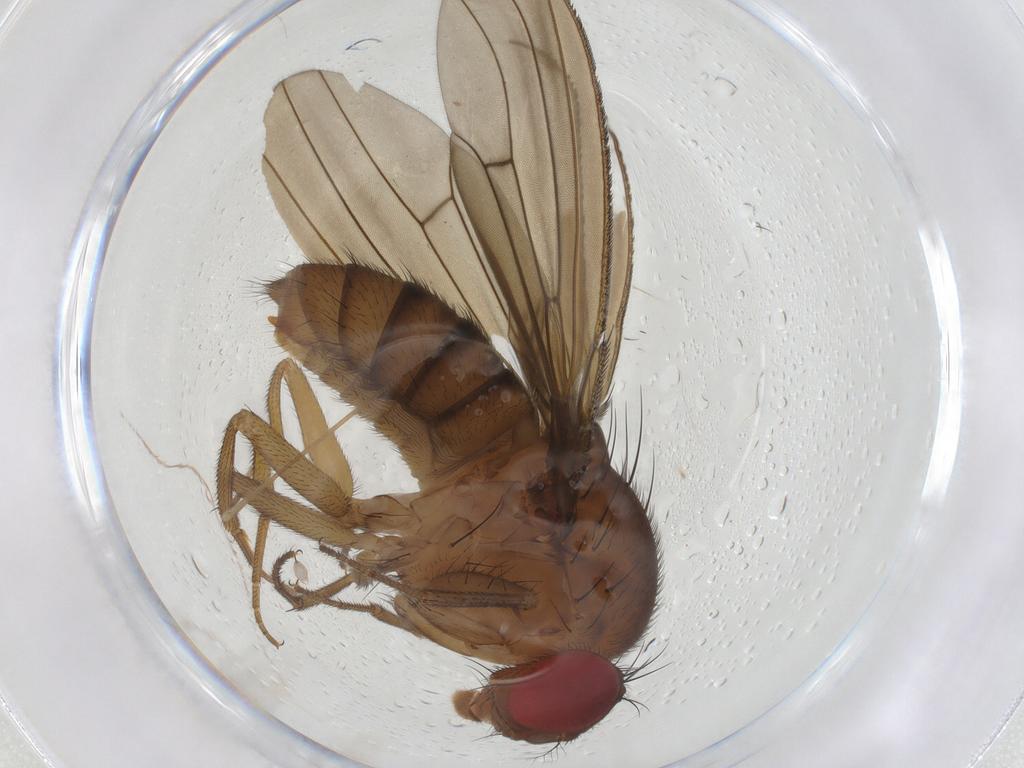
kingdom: Animalia
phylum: Arthropoda
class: Insecta
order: Diptera
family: Drosophilidae
